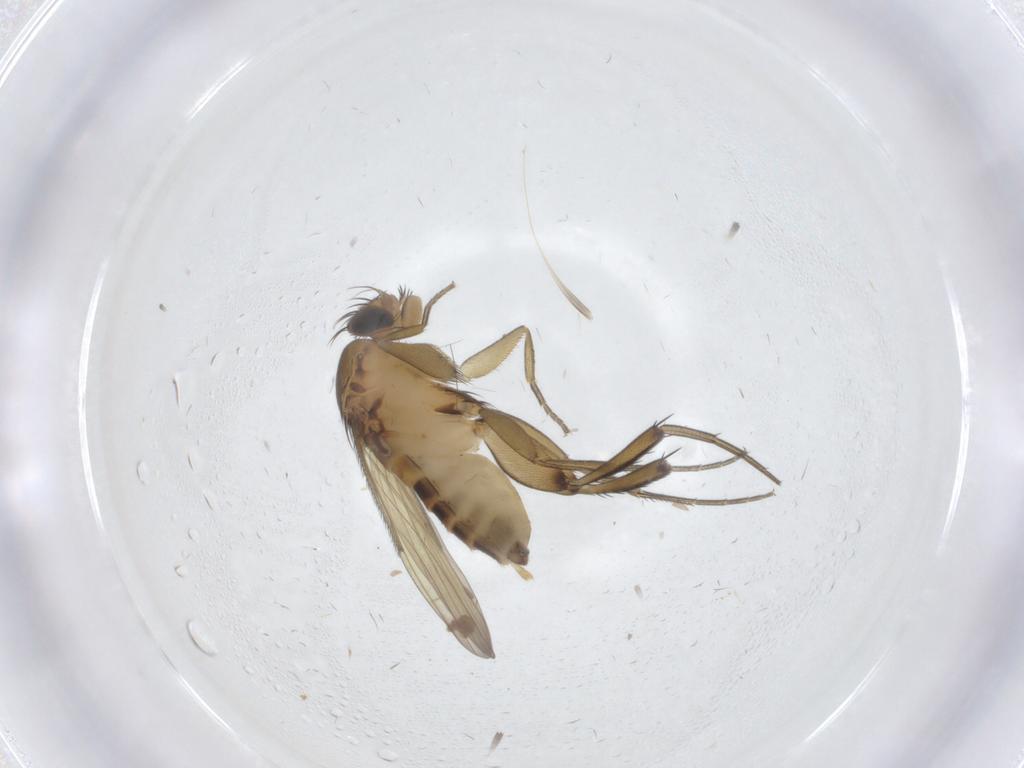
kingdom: Animalia
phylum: Arthropoda
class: Insecta
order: Diptera
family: Phoridae
